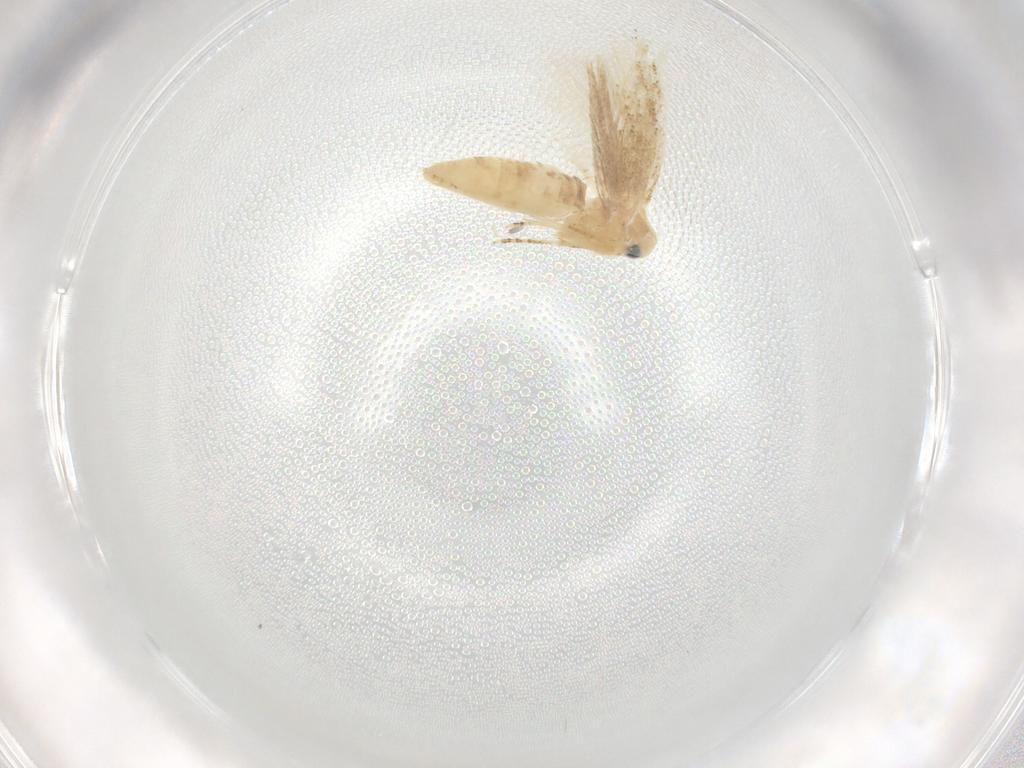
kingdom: Animalia
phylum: Arthropoda
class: Insecta
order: Lepidoptera
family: Bucculatricidae
